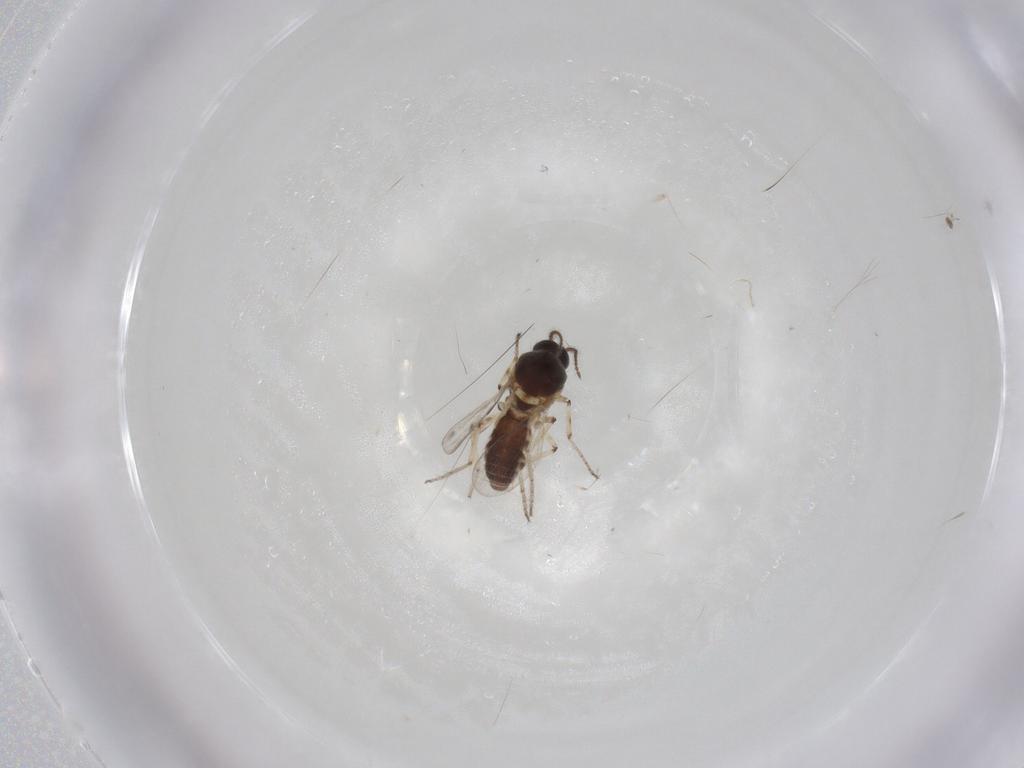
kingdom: Animalia
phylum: Arthropoda
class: Insecta
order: Diptera
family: Ceratopogonidae
